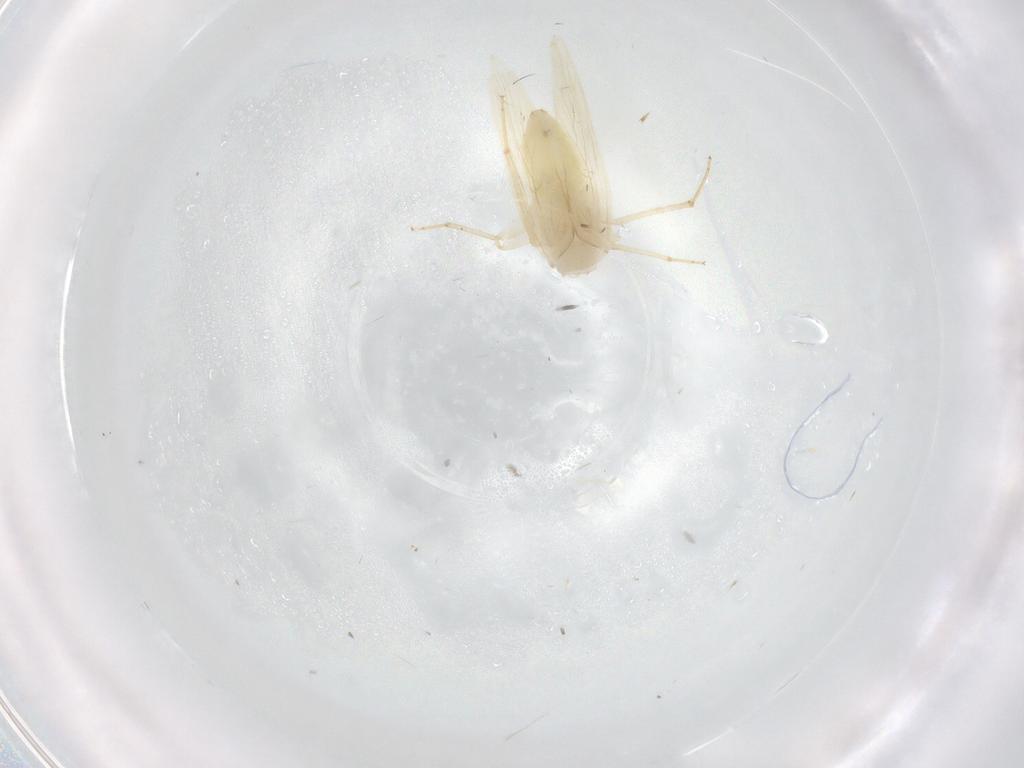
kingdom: Animalia
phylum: Arthropoda
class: Insecta
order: Psocodea
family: Lepidopsocidae
